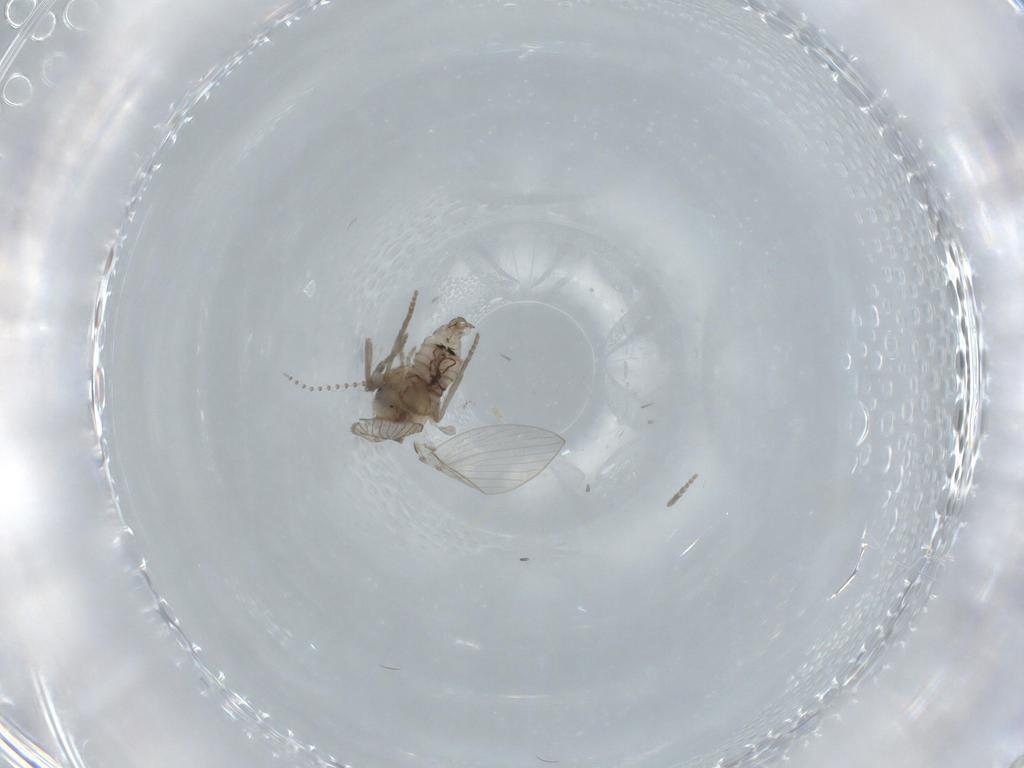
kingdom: Animalia
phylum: Arthropoda
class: Insecta
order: Diptera
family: Psychodidae
